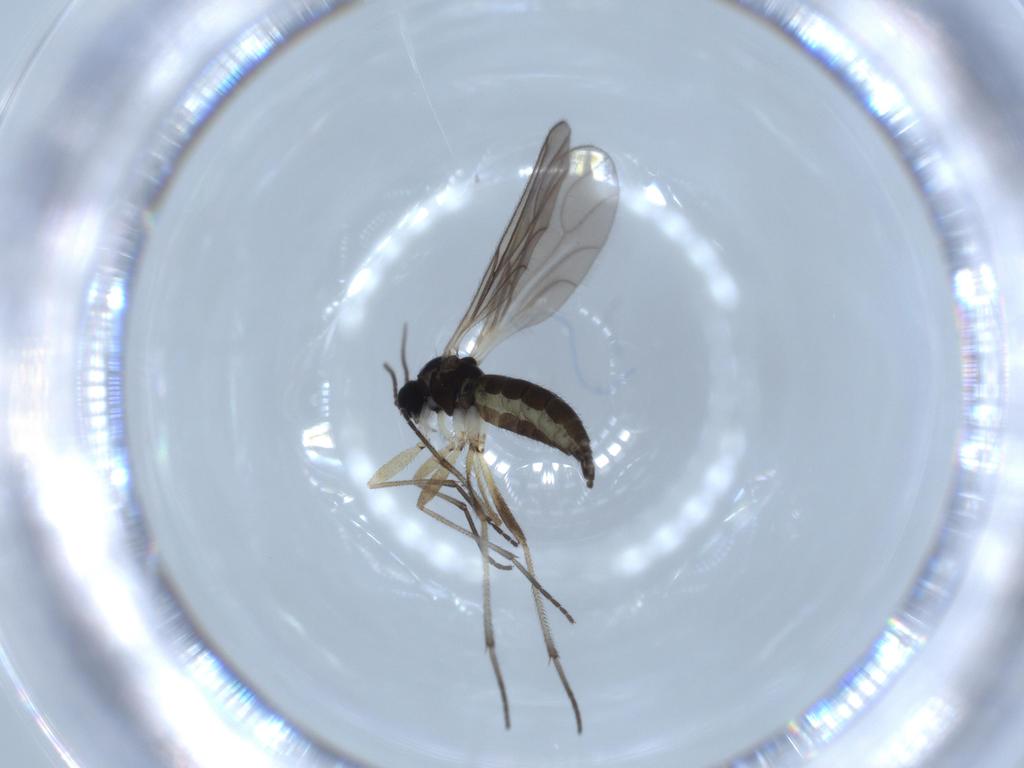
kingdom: Animalia
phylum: Arthropoda
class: Insecta
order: Diptera
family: Sciaridae
